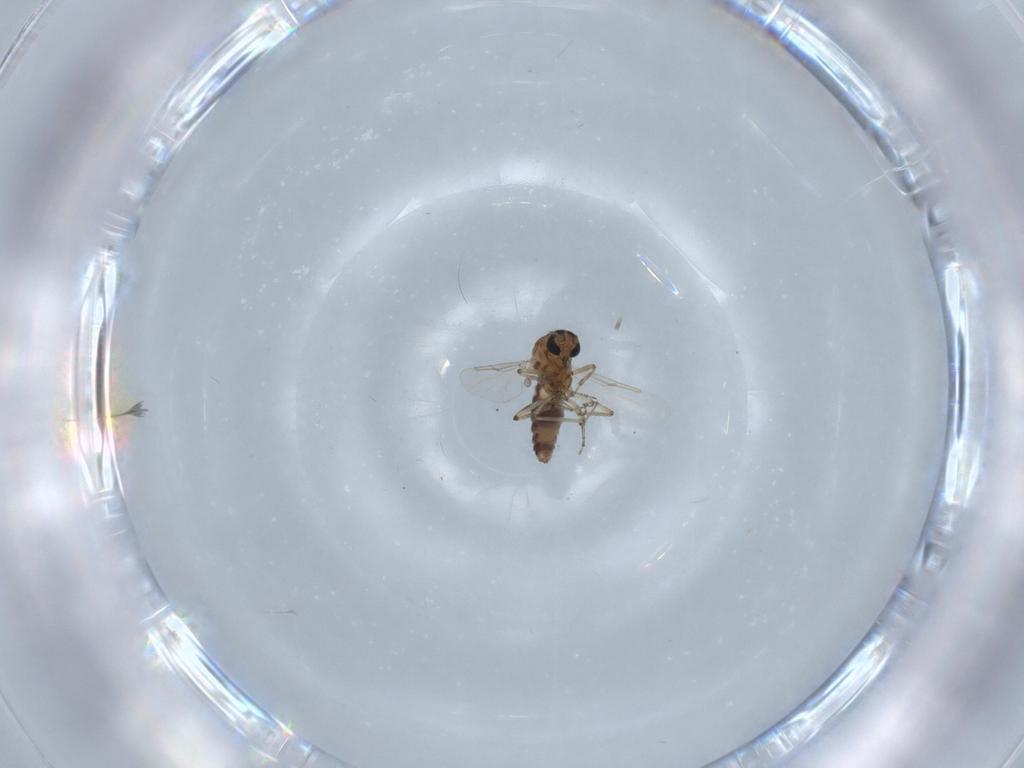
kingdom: Animalia
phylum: Arthropoda
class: Insecta
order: Diptera
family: Ceratopogonidae
